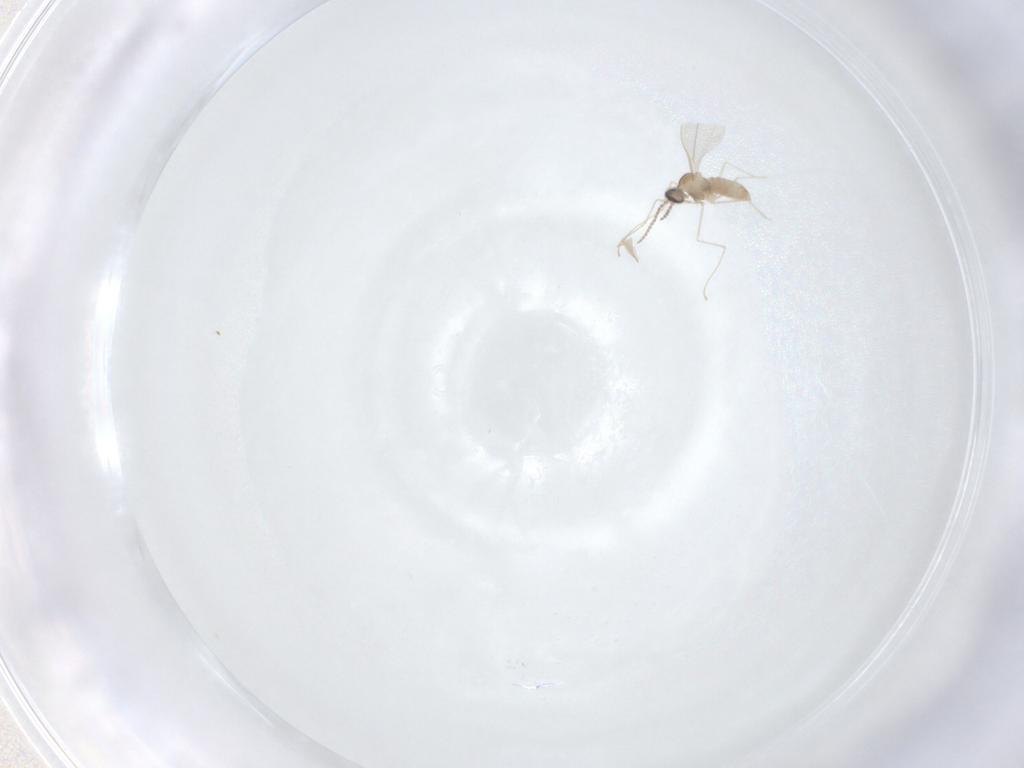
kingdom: Animalia
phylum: Arthropoda
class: Insecta
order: Diptera
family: Cecidomyiidae
